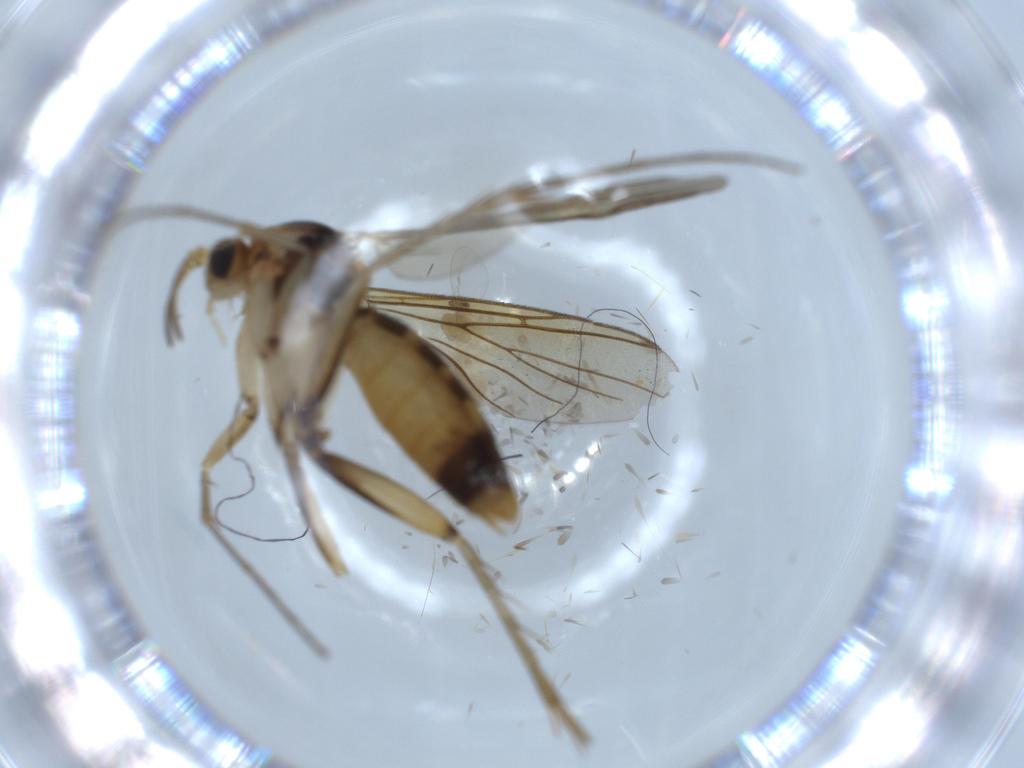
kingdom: Animalia
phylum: Arthropoda
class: Insecta
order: Diptera
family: Cecidomyiidae
